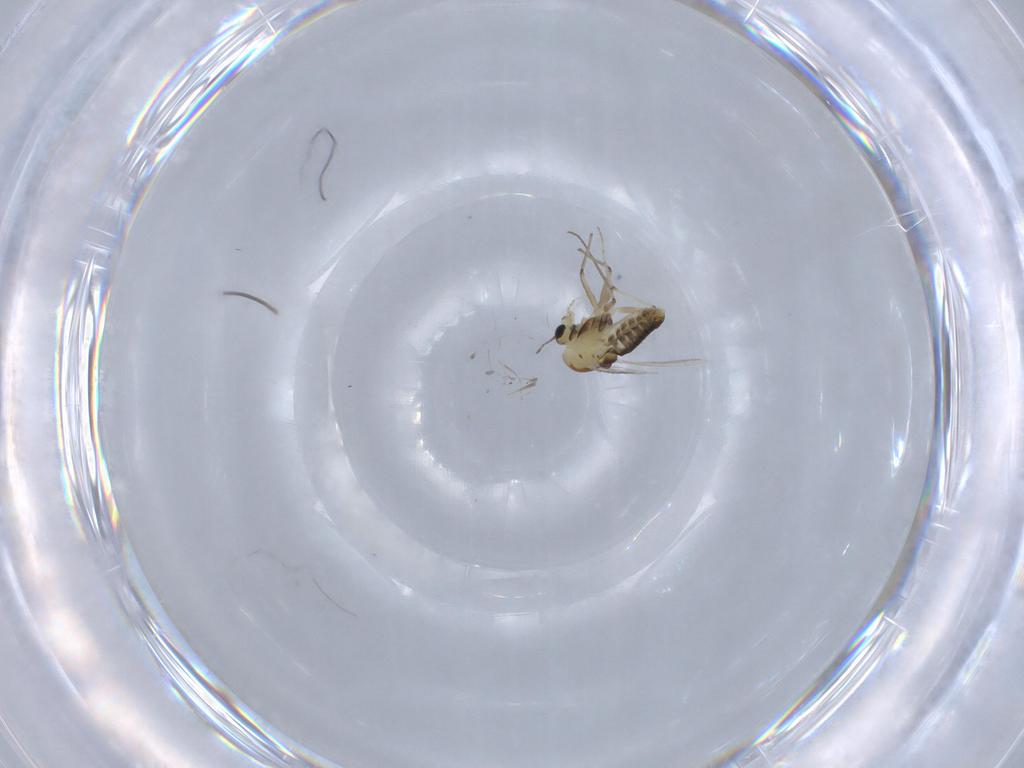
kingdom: Animalia
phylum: Arthropoda
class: Insecta
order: Diptera
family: Chironomidae
